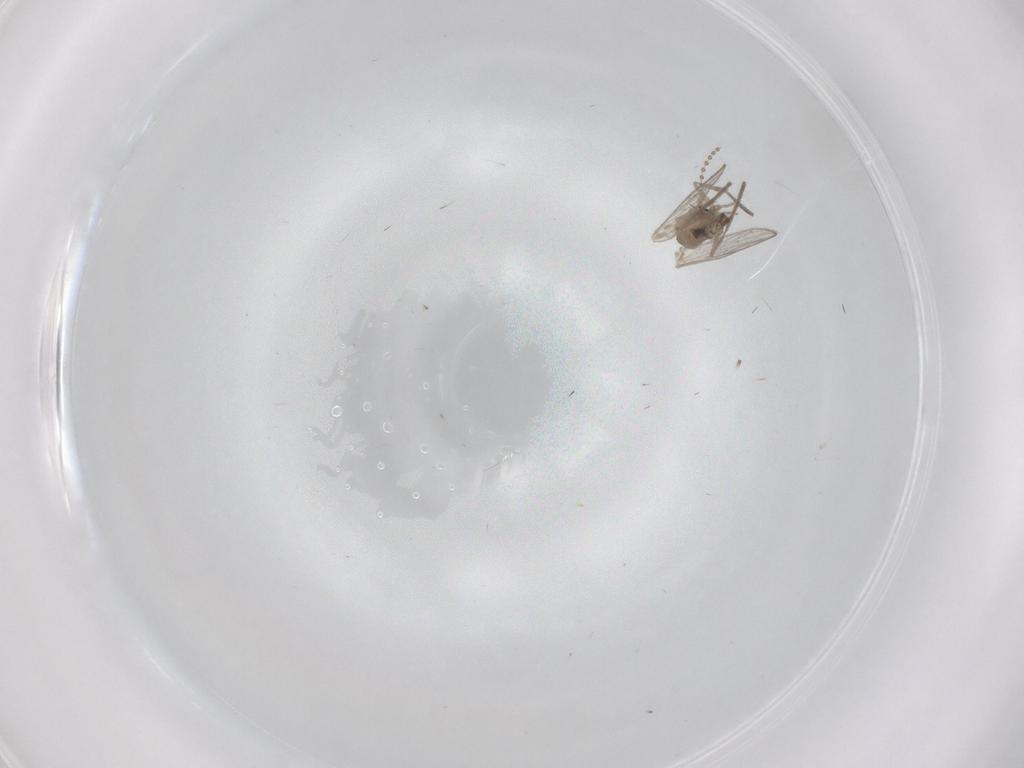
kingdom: Animalia
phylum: Arthropoda
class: Insecta
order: Diptera
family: Psychodidae
